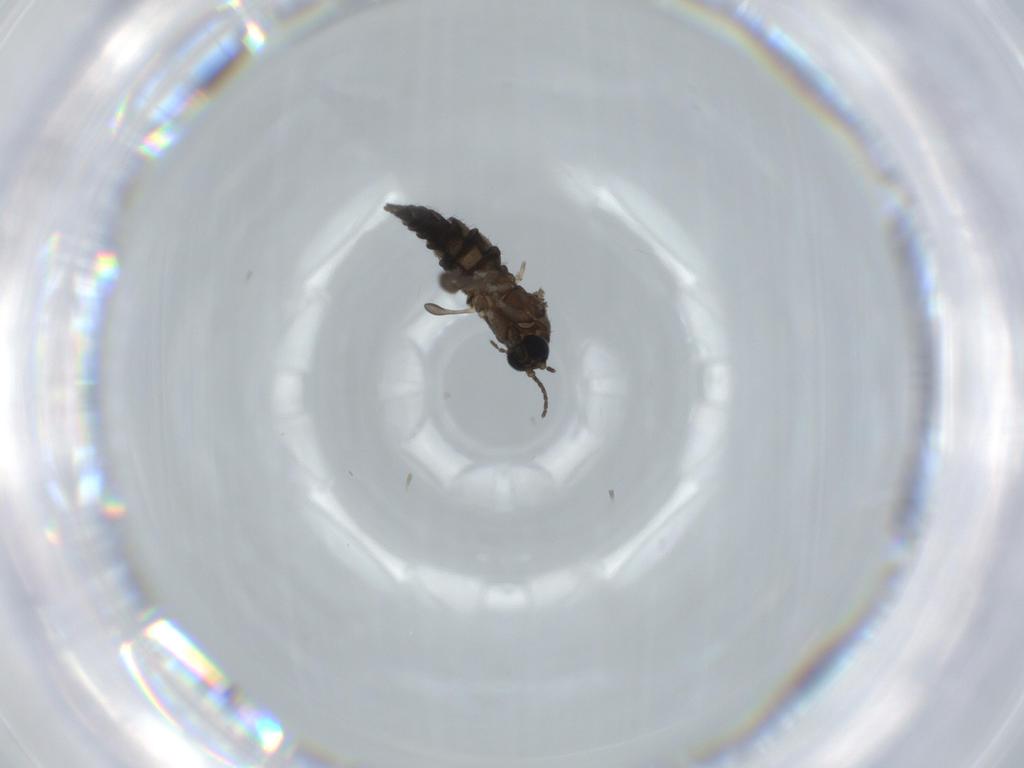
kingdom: Animalia
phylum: Arthropoda
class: Insecta
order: Diptera
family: Sciaridae
